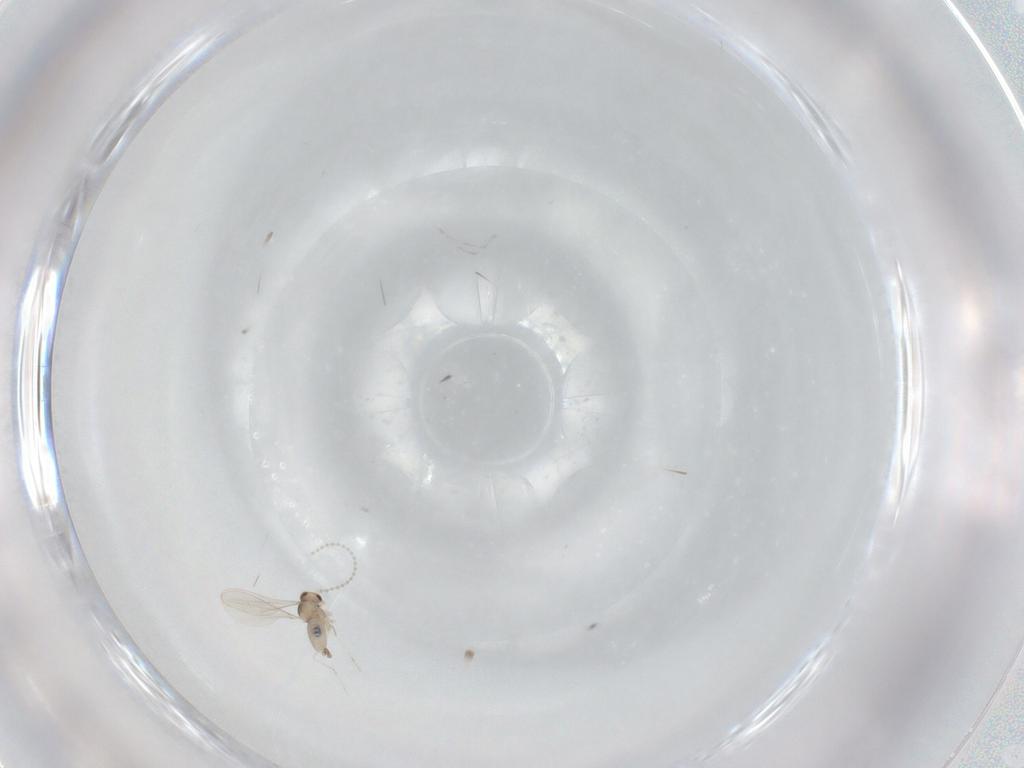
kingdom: Animalia
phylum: Arthropoda
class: Insecta
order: Diptera
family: Cecidomyiidae
